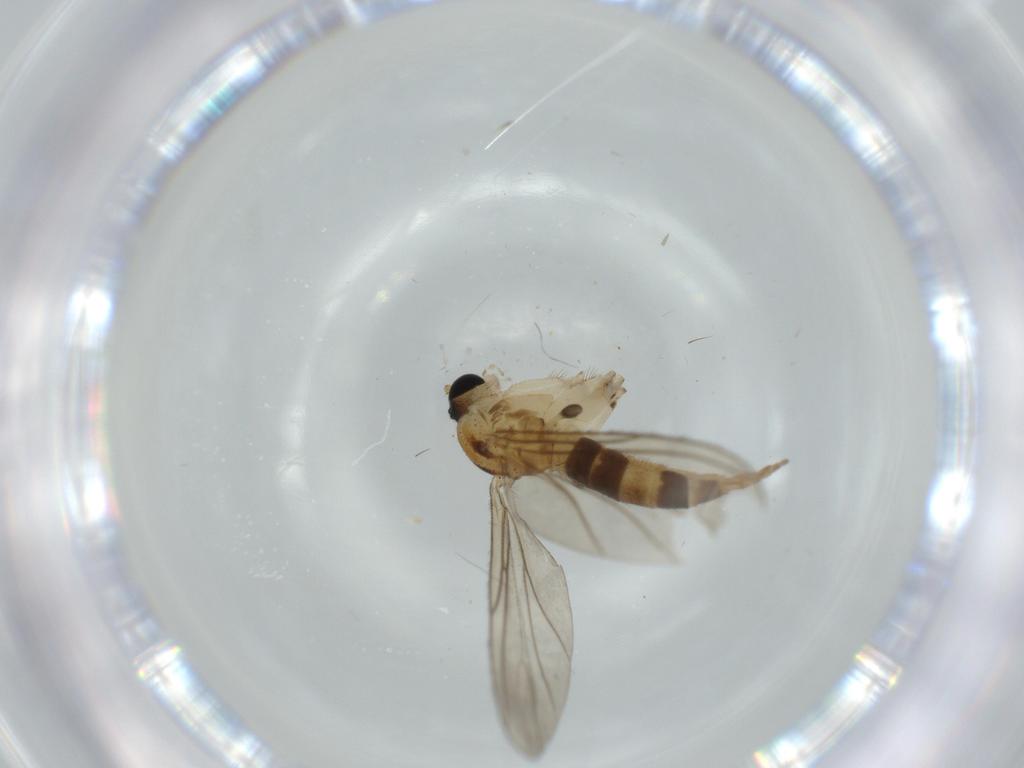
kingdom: Animalia
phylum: Arthropoda
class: Insecta
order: Diptera
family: Sciaridae
